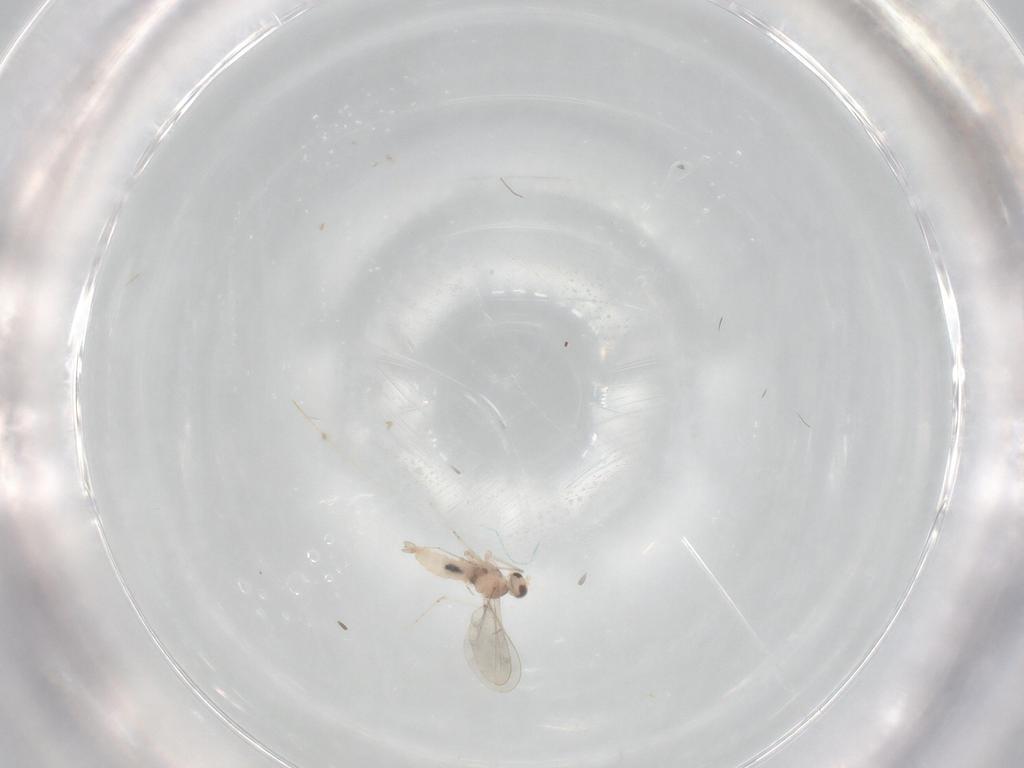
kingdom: Animalia
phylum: Arthropoda
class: Insecta
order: Diptera
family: Cecidomyiidae
